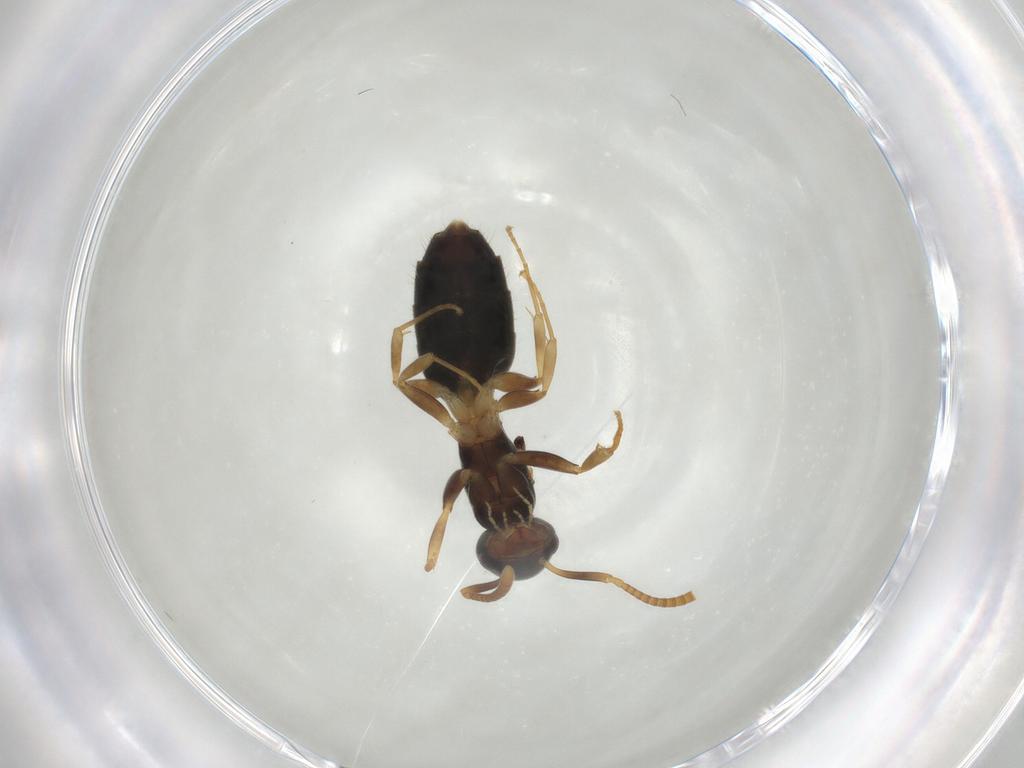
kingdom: Animalia
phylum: Arthropoda
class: Insecta
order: Hymenoptera
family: Formicidae
